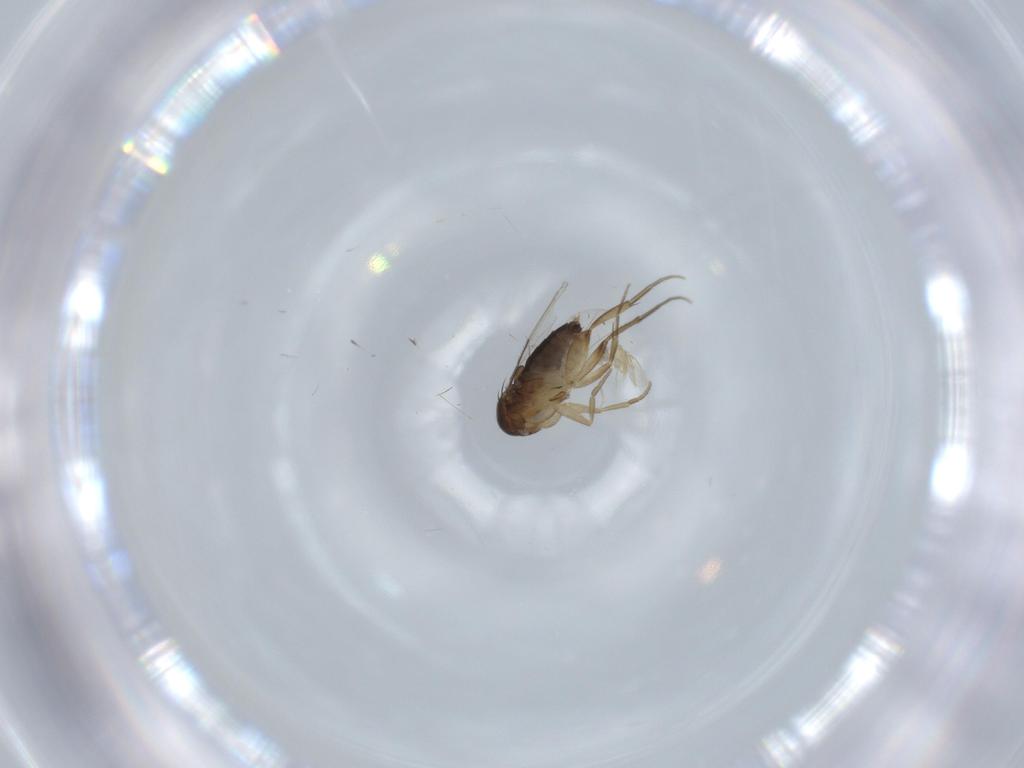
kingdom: Animalia
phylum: Arthropoda
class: Insecta
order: Diptera
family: Phoridae
